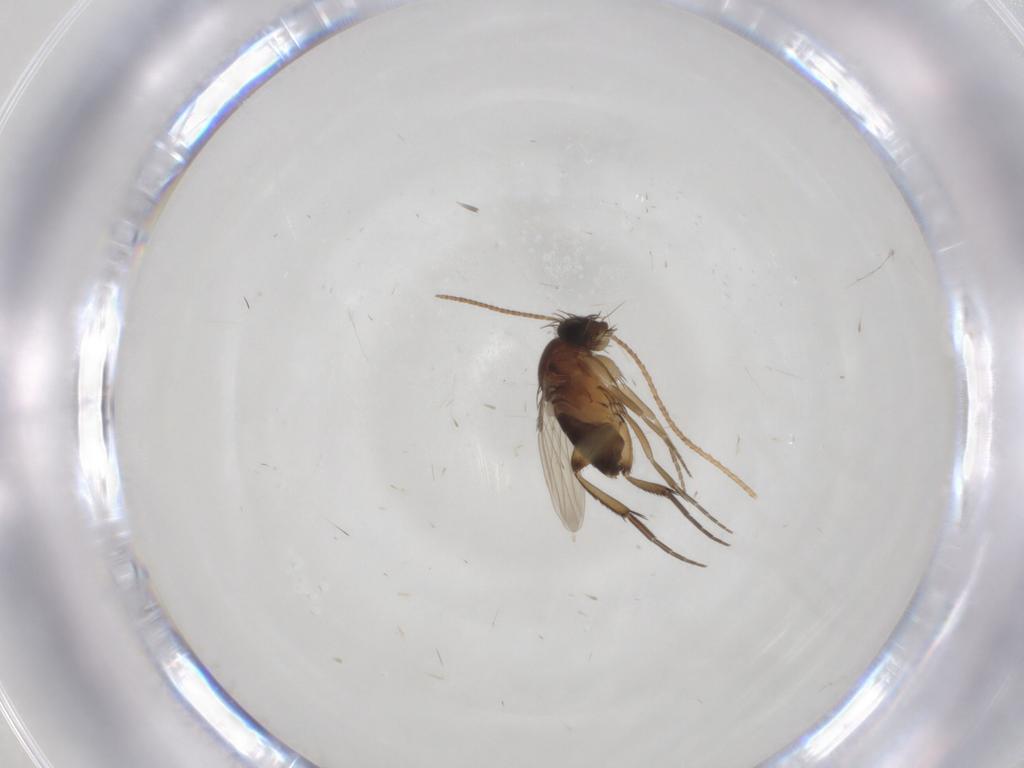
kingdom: Animalia
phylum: Arthropoda
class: Insecta
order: Diptera
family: Phoridae
